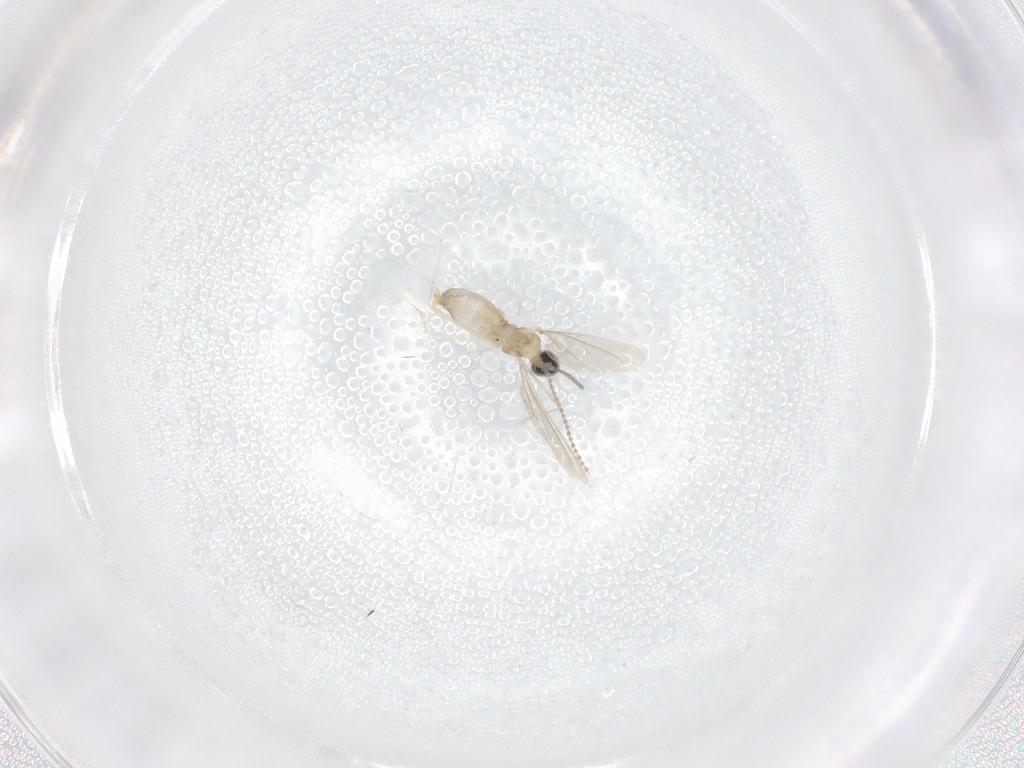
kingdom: Animalia
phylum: Arthropoda
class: Insecta
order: Diptera
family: Cecidomyiidae
